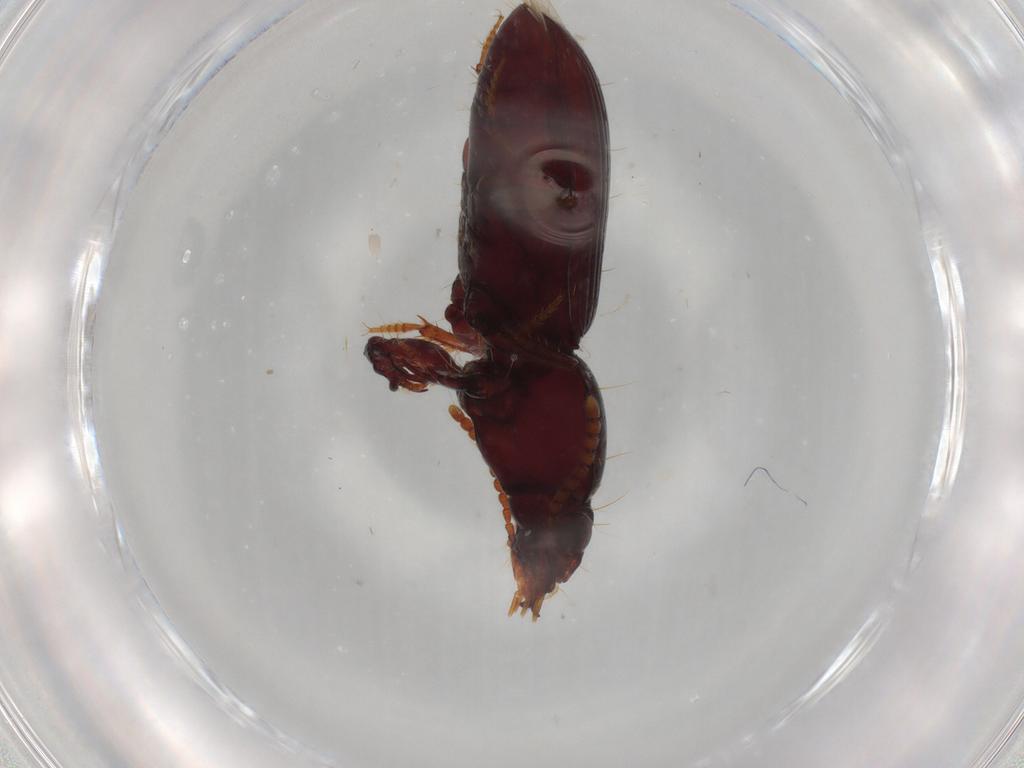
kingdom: Animalia
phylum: Arthropoda
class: Insecta
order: Coleoptera
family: Carabidae
